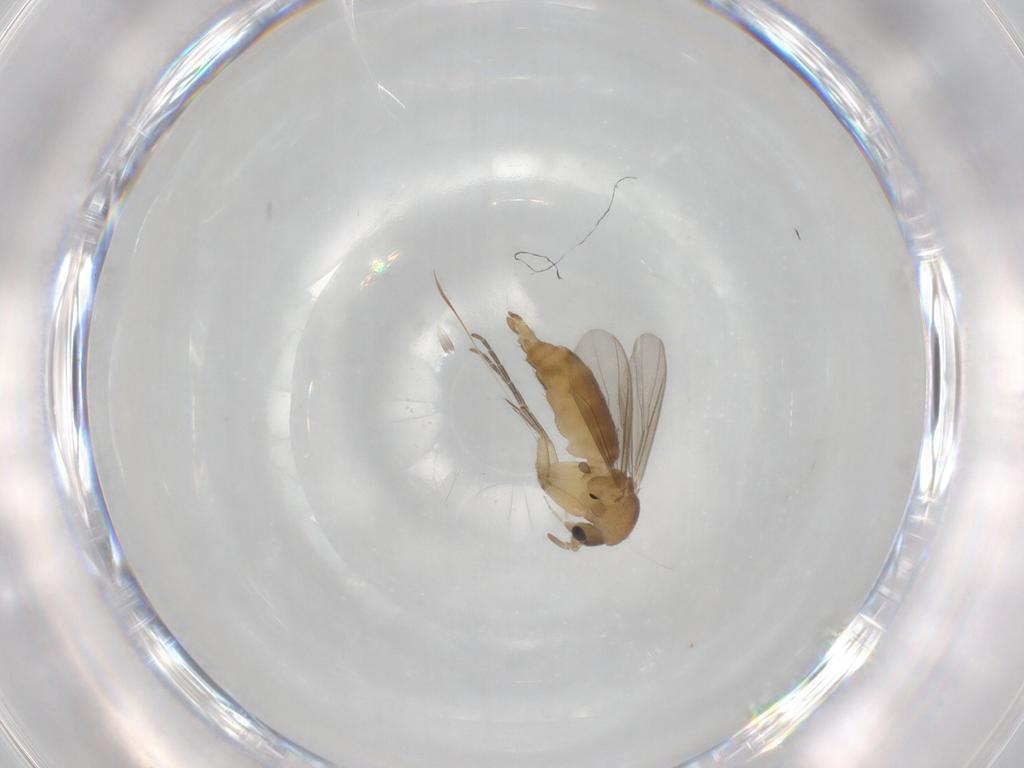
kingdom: Animalia
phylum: Arthropoda
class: Insecta
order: Diptera
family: Mycetophilidae
